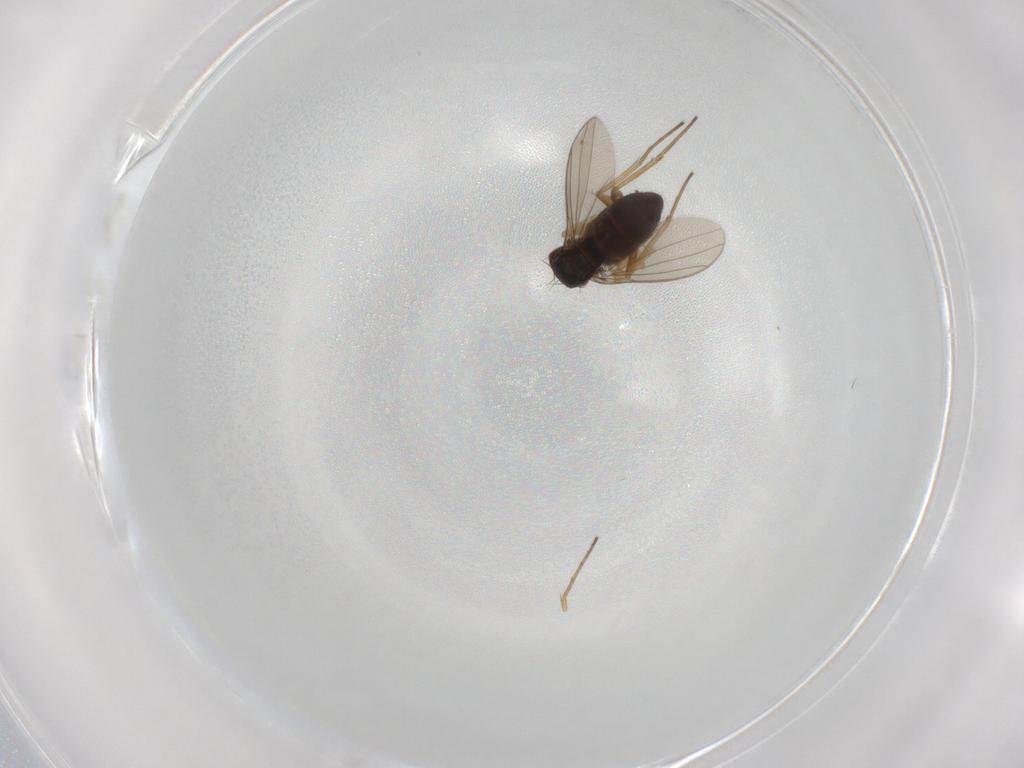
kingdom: Animalia
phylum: Arthropoda
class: Insecta
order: Diptera
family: Dolichopodidae
